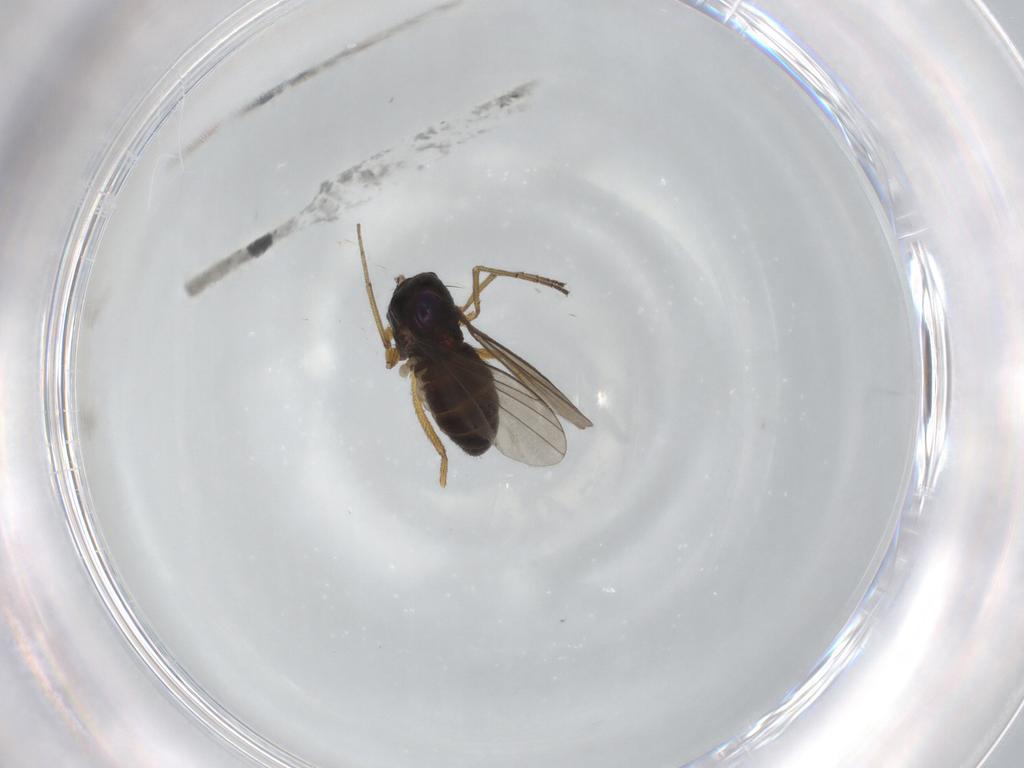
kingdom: Animalia
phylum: Arthropoda
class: Insecta
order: Diptera
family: Dolichopodidae
